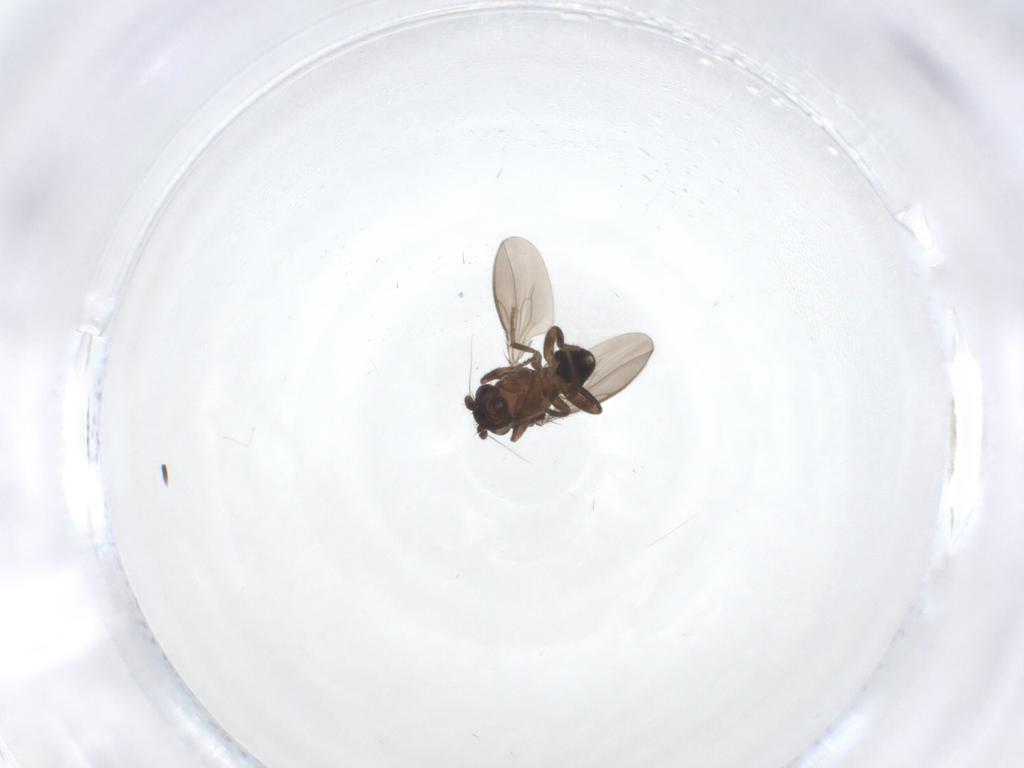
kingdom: Animalia
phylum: Arthropoda
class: Insecta
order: Diptera
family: Sphaeroceridae
